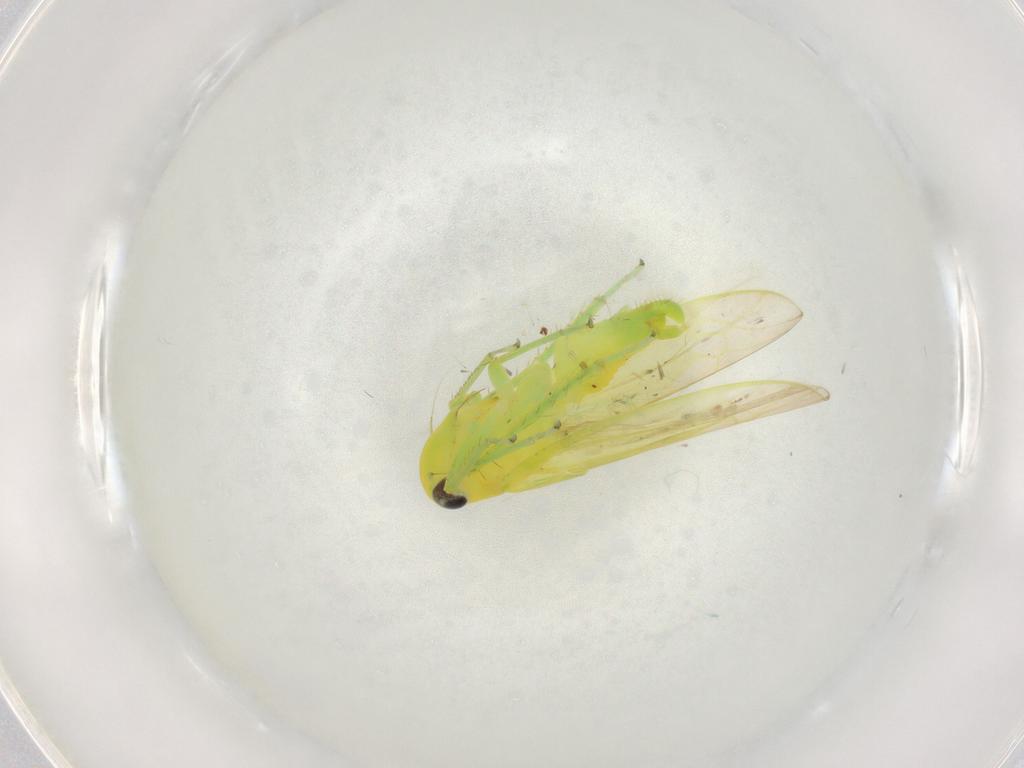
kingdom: Animalia
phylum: Arthropoda
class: Insecta
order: Hemiptera
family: Cicadellidae
